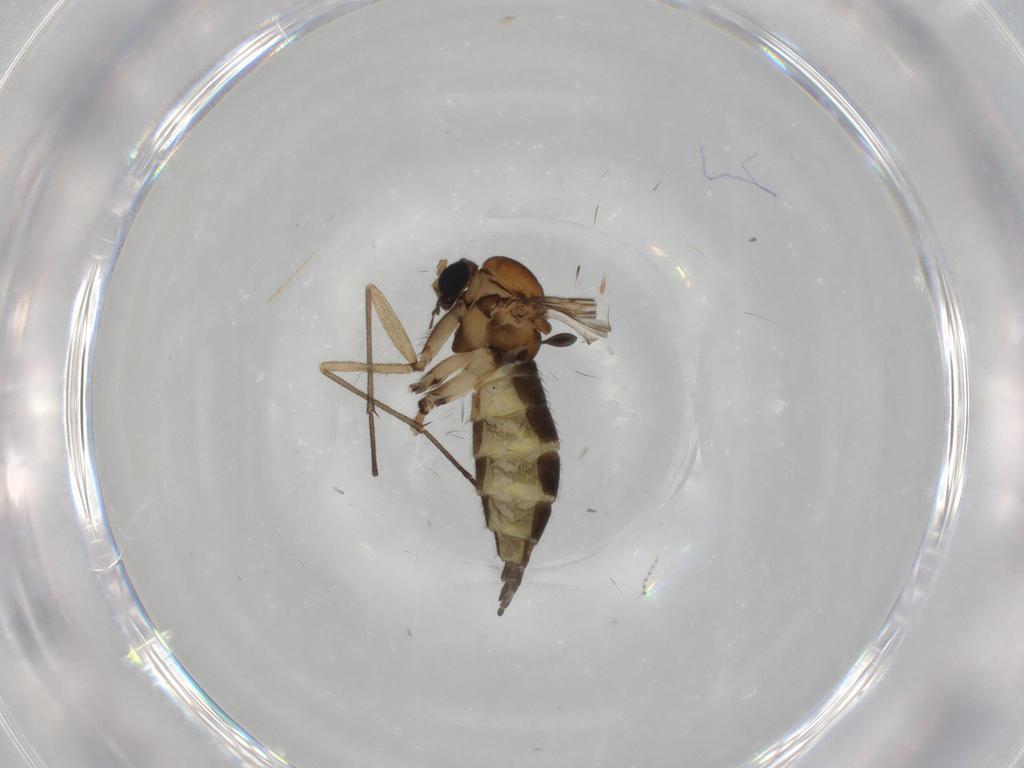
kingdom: Animalia
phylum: Arthropoda
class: Insecta
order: Diptera
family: Sciaridae
